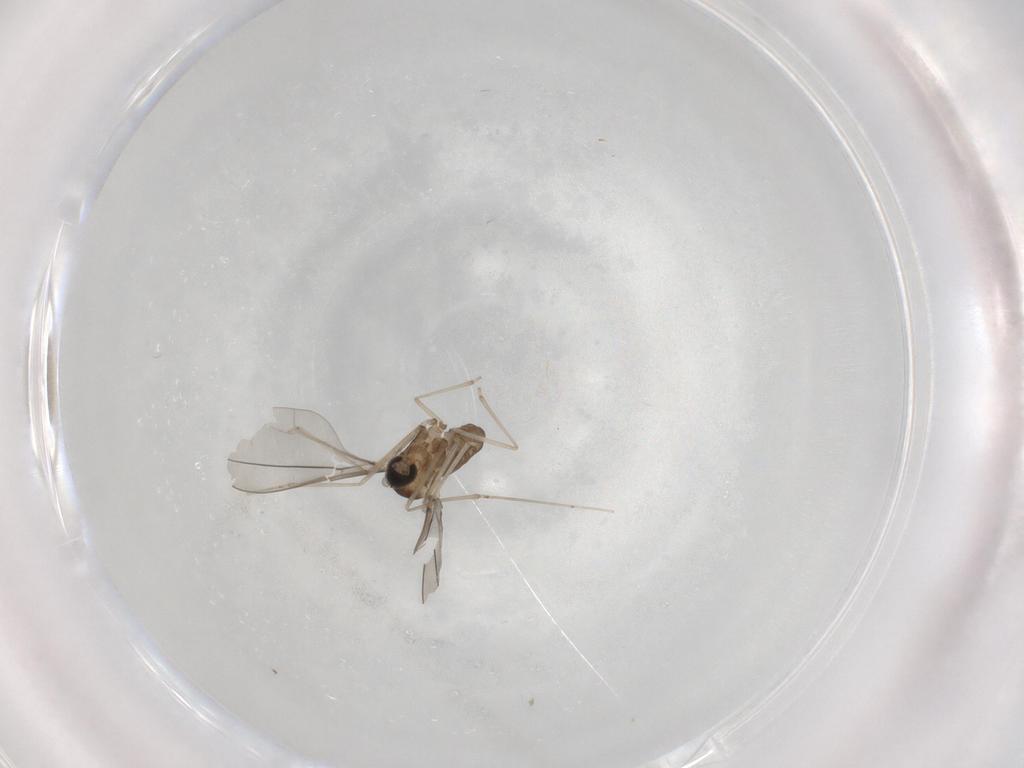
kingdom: Animalia
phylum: Arthropoda
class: Insecta
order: Diptera
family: Cecidomyiidae
